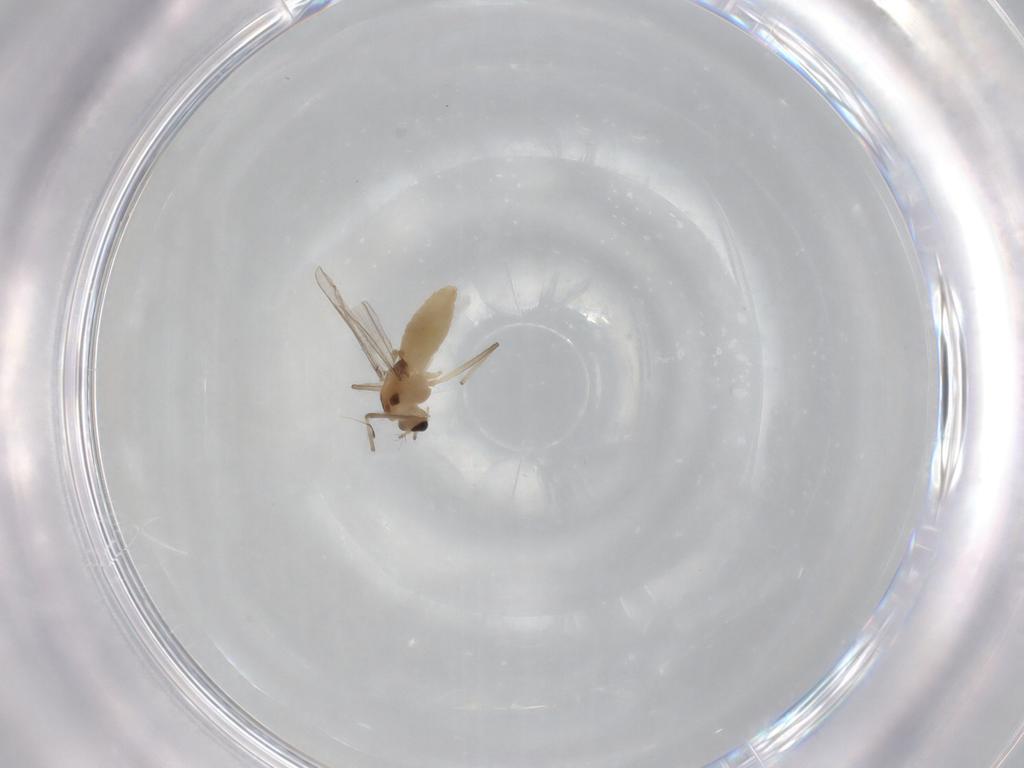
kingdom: Animalia
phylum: Arthropoda
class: Insecta
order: Diptera
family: Chironomidae
